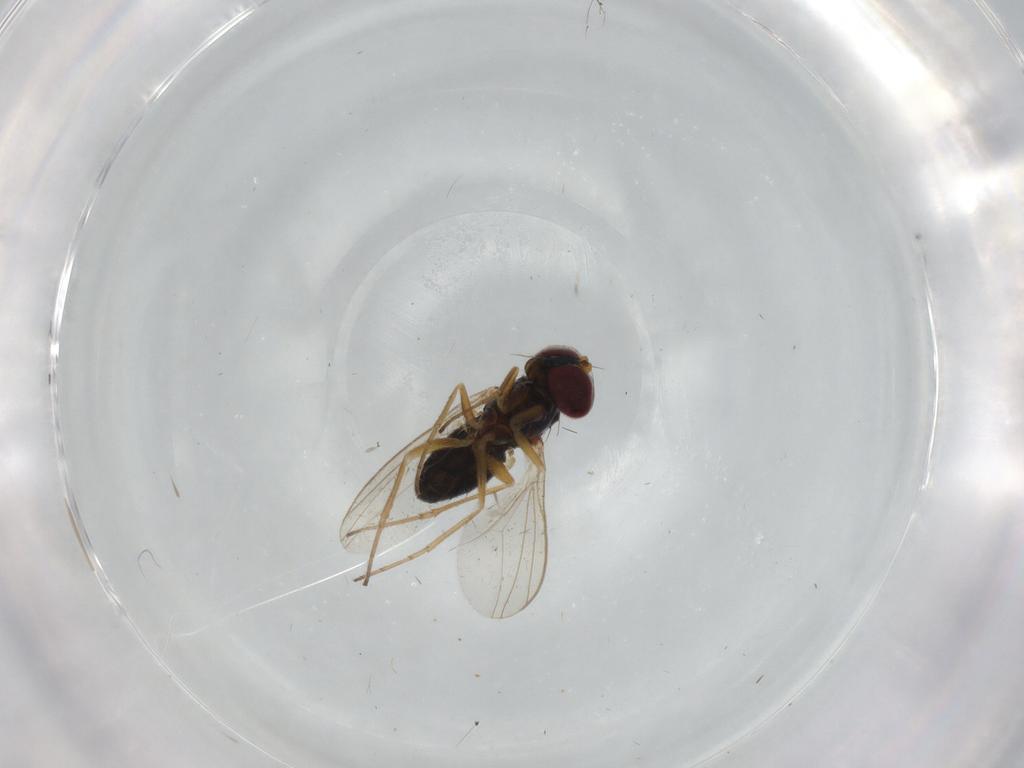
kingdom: Animalia
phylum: Arthropoda
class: Insecta
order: Diptera
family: Dolichopodidae
